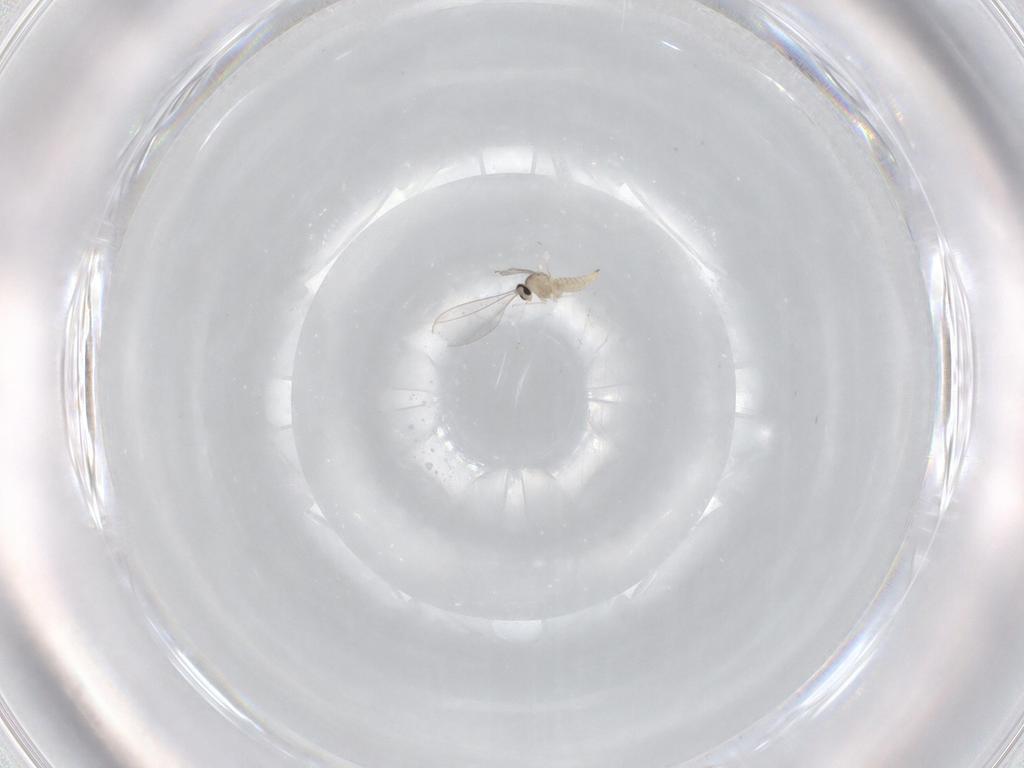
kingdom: Animalia
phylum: Arthropoda
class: Insecta
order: Diptera
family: Cecidomyiidae
